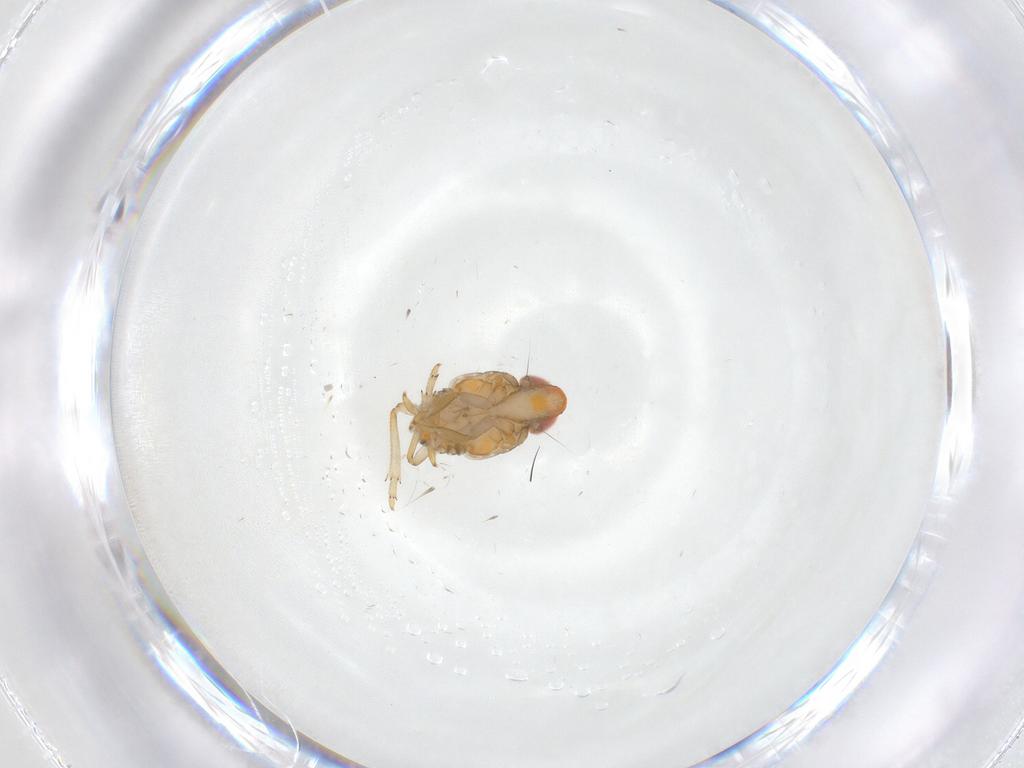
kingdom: Animalia
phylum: Arthropoda
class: Insecta
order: Hemiptera
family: Fulgoroidea_incertae_sedis
